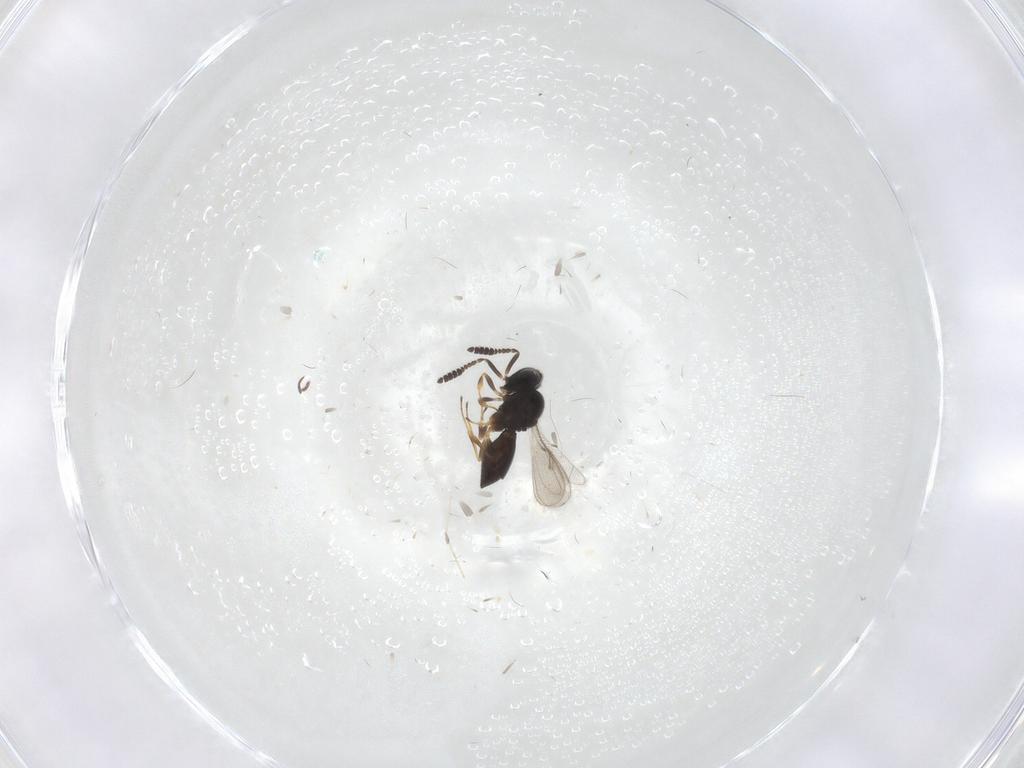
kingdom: Animalia
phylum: Arthropoda
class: Insecta
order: Hymenoptera
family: Scelionidae
